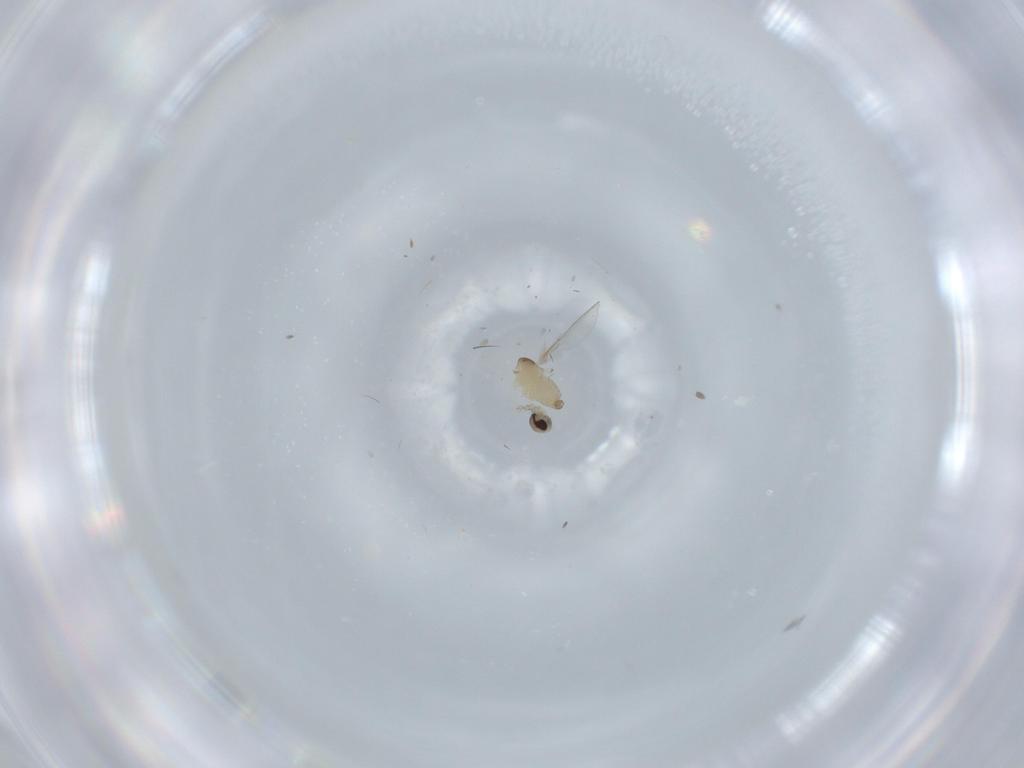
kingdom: Animalia
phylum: Arthropoda
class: Insecta
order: Diptera
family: Cecidomyiidae
